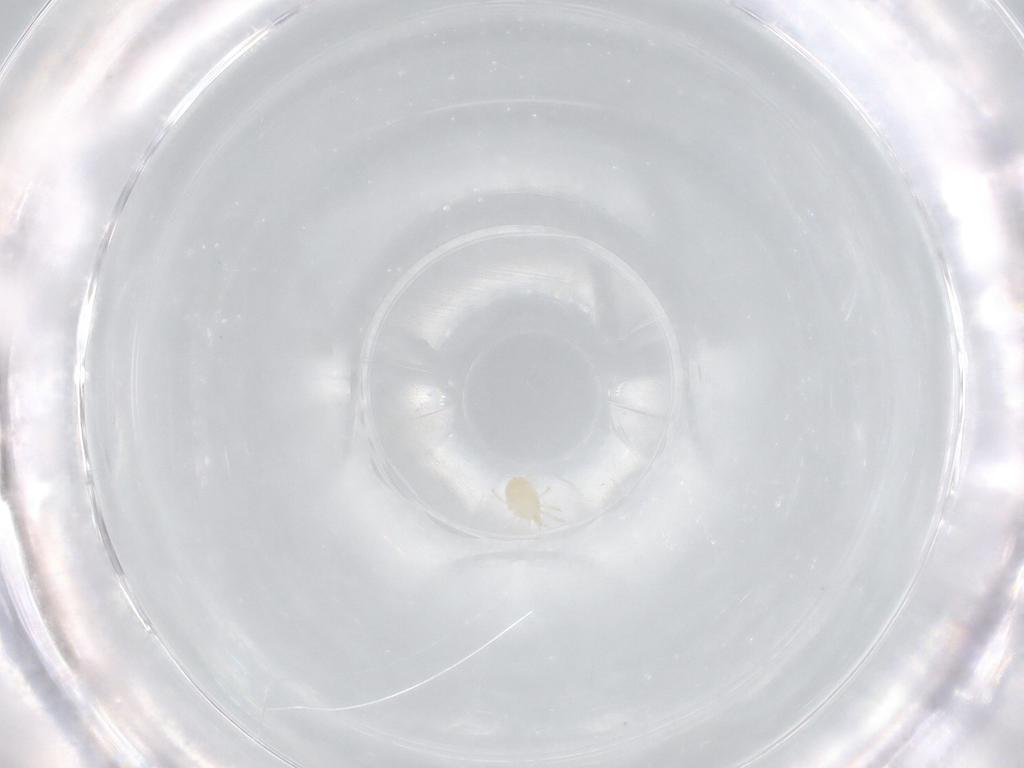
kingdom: Animalia
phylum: Arthropoda
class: Arachnida
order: Mesostigmata
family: Phytoseiidae
